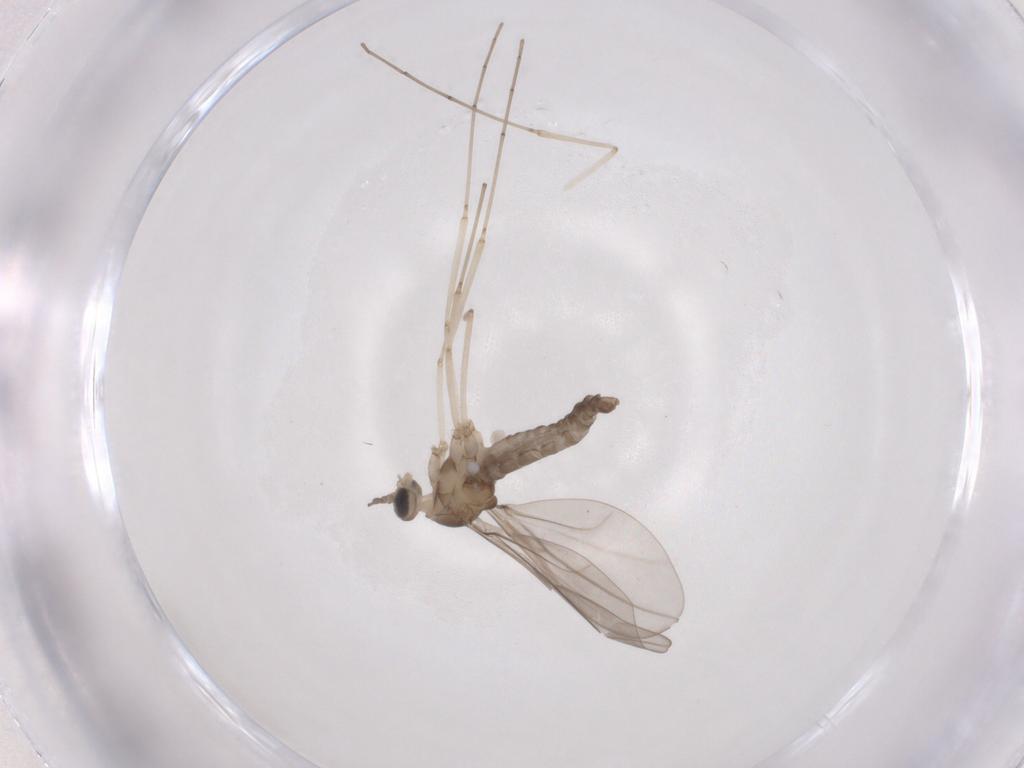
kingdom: Animalia
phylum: Arthropoda
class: Insecta
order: Diptera
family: Cecidomyiidae
